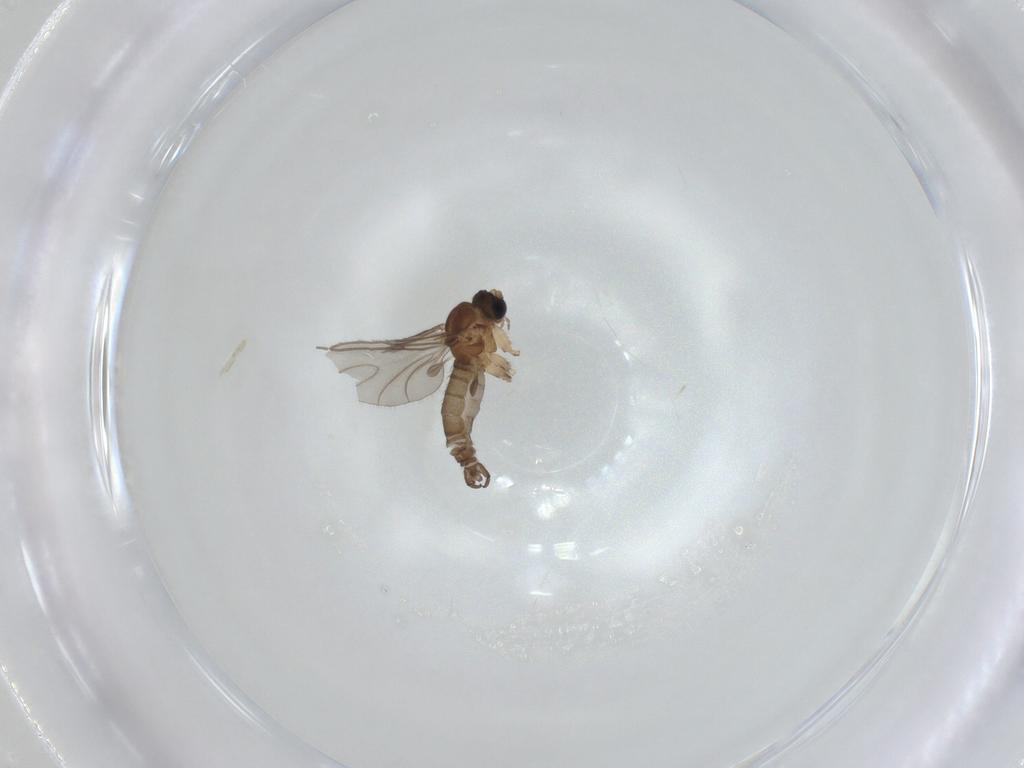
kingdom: Animalia
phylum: Arthropoda
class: Insecta
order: Diptera
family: Sciaridae
